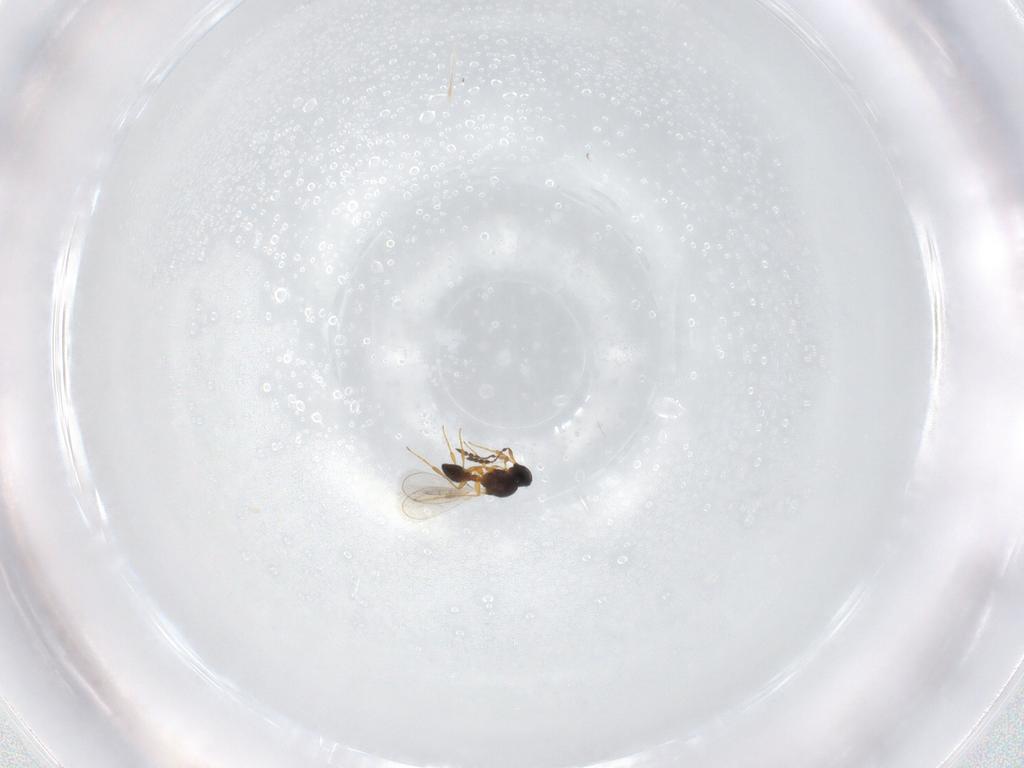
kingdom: Animalia
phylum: Arthropoda
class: Insecta
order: Hymenoptera
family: Platygastridae
